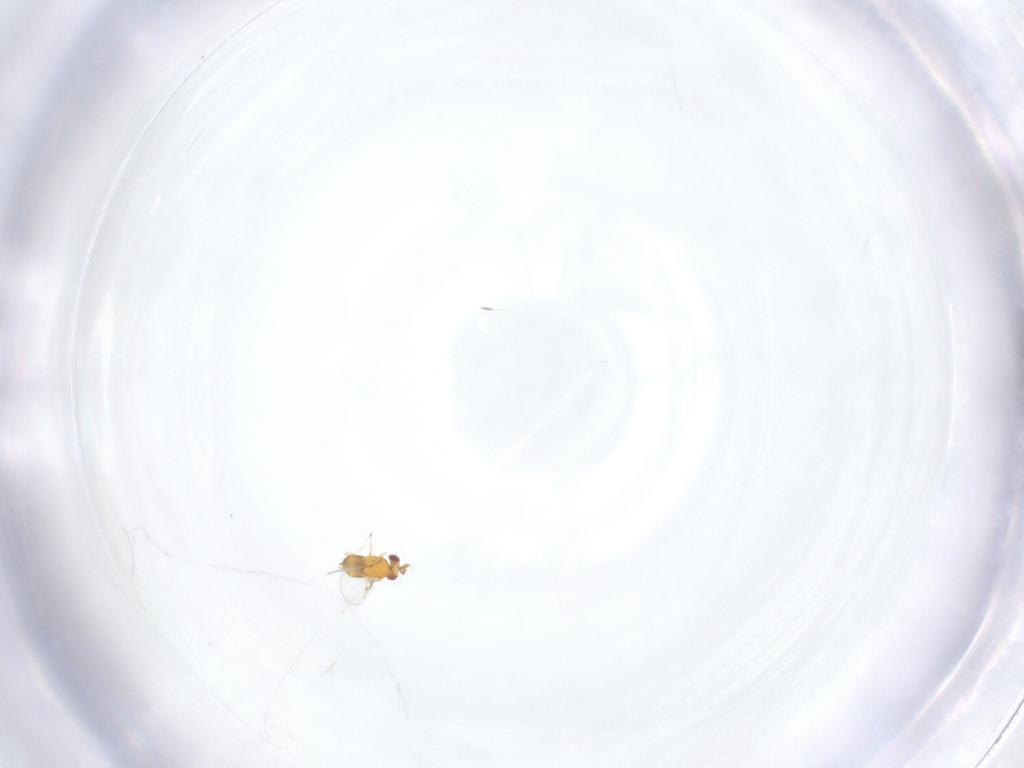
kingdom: Animalia
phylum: Arthropoda
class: Insecta
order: Hymenoptera
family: Trichogrammatidae
